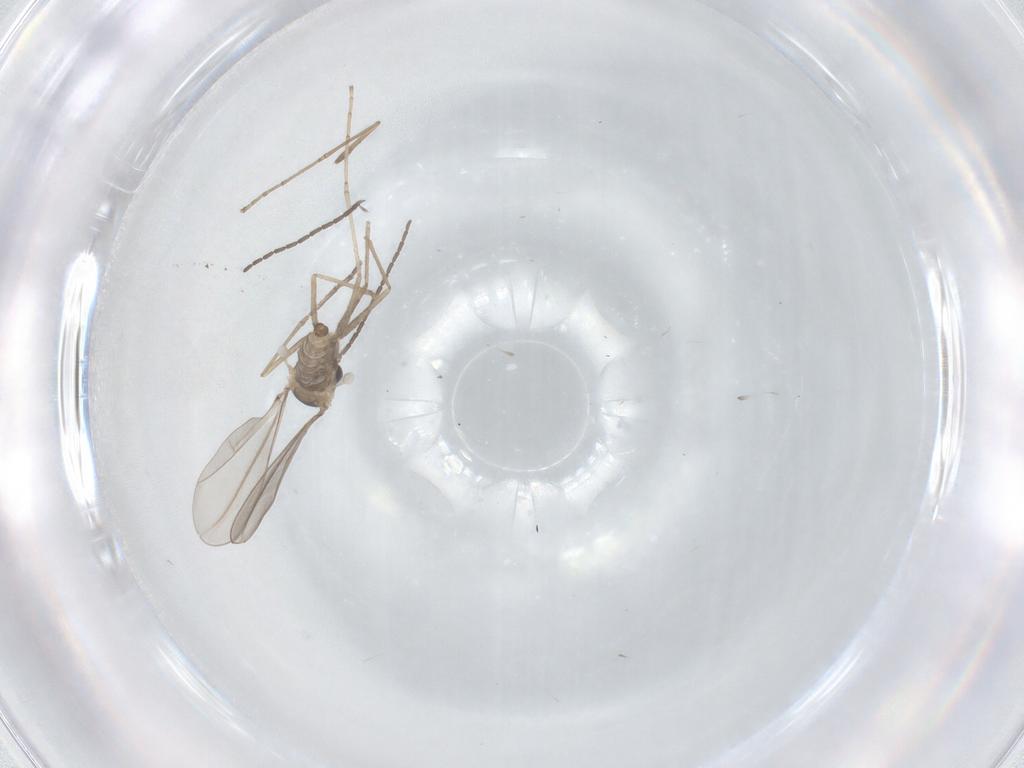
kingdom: Animalia
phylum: Arthropoda
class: Insecta
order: Diptera
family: Cecidomyiidae
